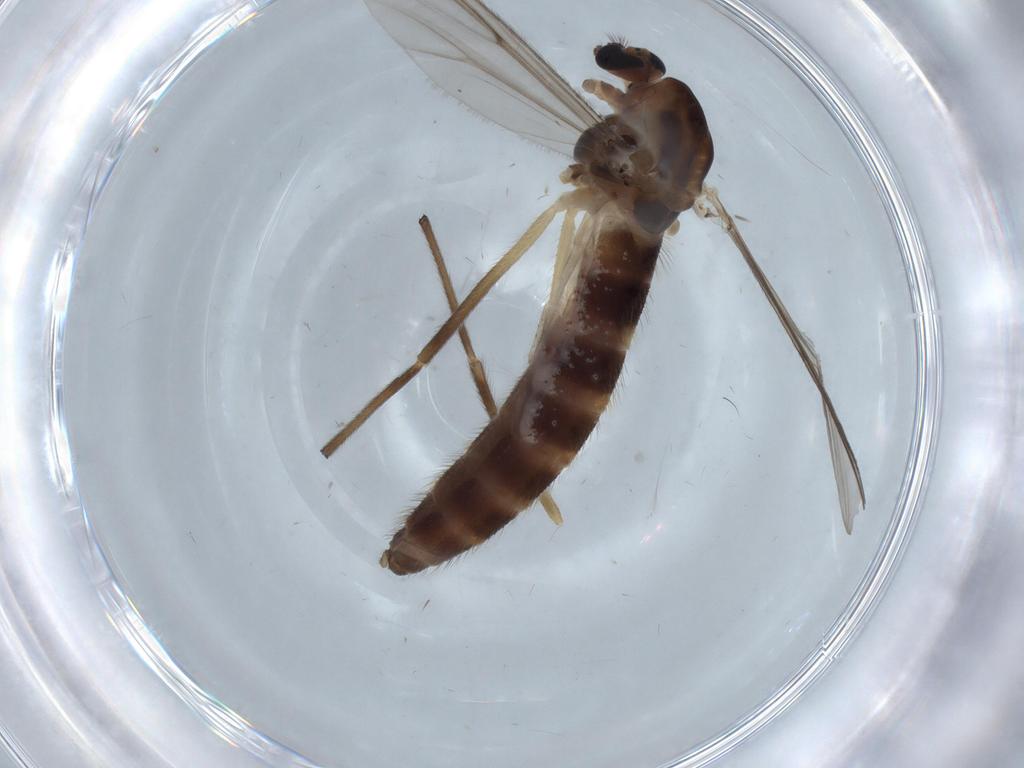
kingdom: Animalia
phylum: Arthropoda
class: Insecta
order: Diptera
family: Chironomidae
